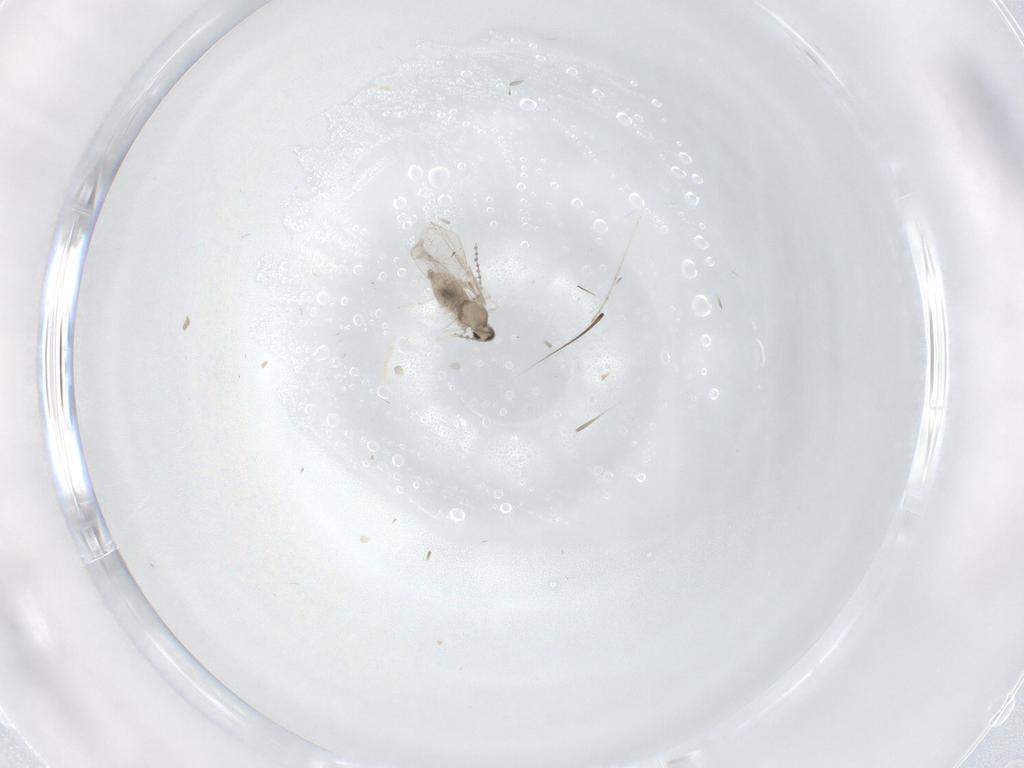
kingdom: Animalia
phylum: Arthropoda
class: Insecta
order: Diptera
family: Cecidomyiidae
